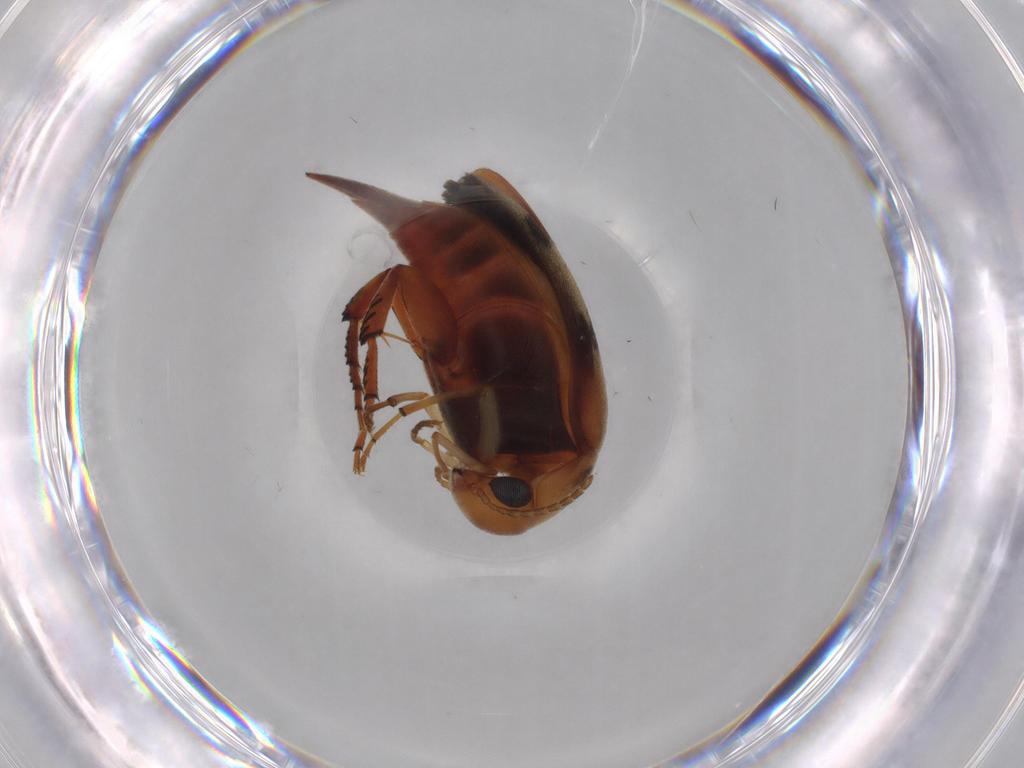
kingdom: Animalia
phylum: Arthropoda
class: Insecta
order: Coleoptera
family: Mordellidae
